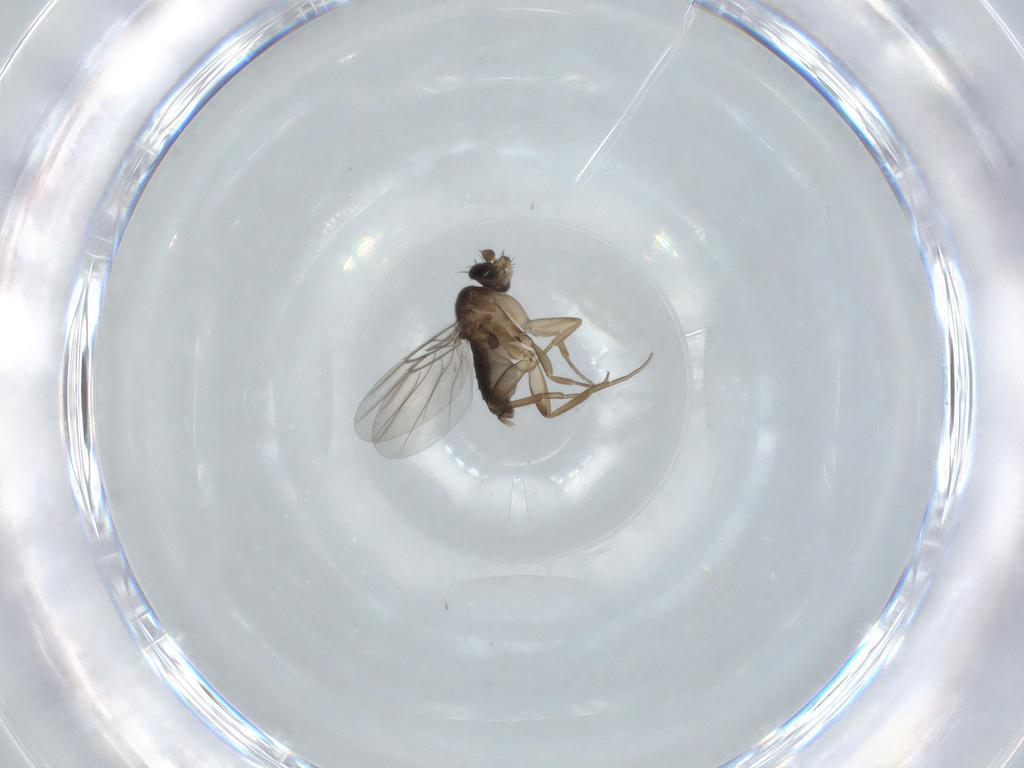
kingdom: Animalia
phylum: Arthropoda
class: Insecta
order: Diptera
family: Phoridae
